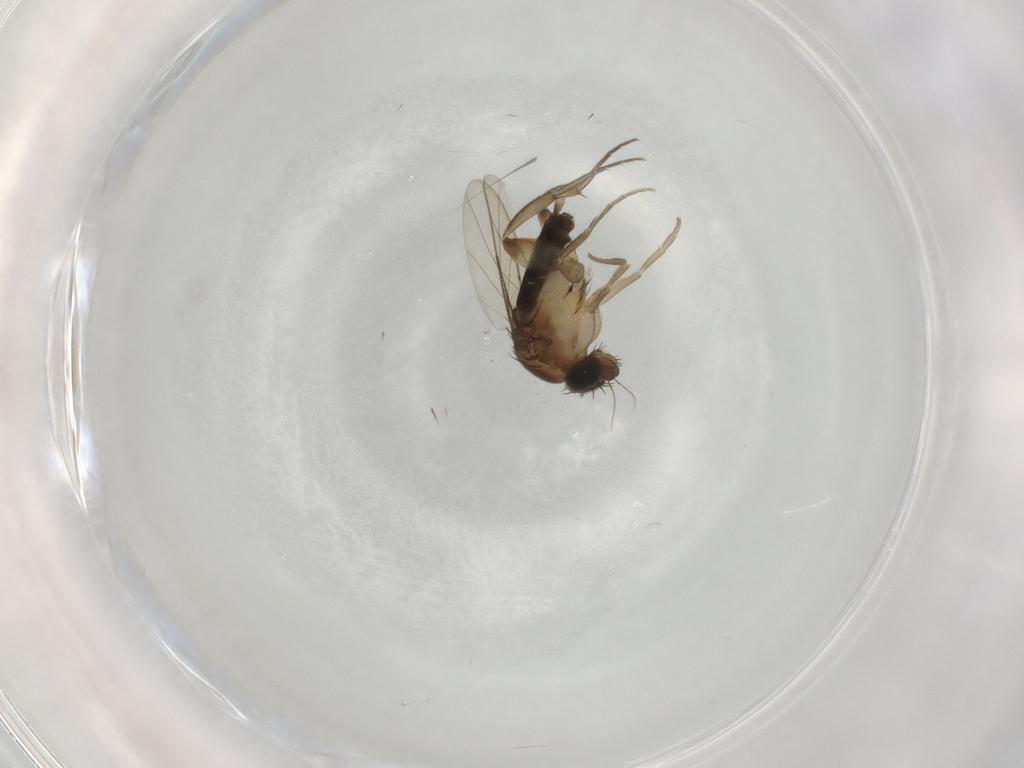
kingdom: Animalia
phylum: Arthropoda
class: Insecta
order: Diptera
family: Phoridae
